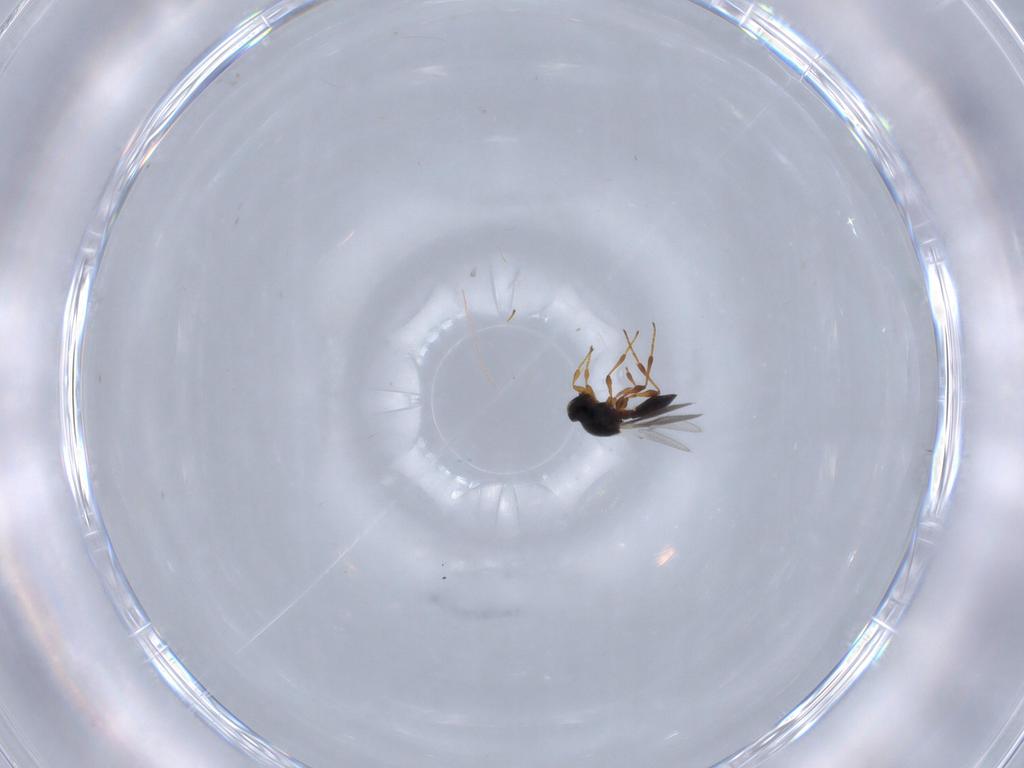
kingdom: Animalia
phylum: Arthropoda
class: Insecta
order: Hymenoptera
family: Platygastridae
